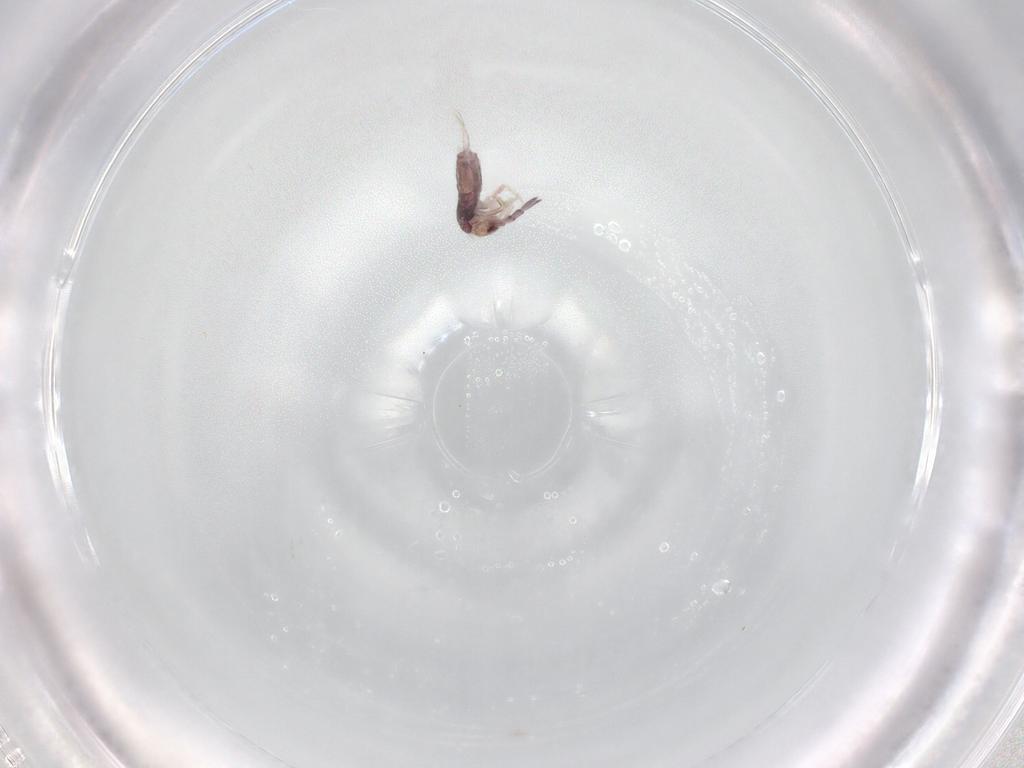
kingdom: Animalia
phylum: Arthropoda
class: Collembola
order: Entomobryomorpha
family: Entomobryidae
